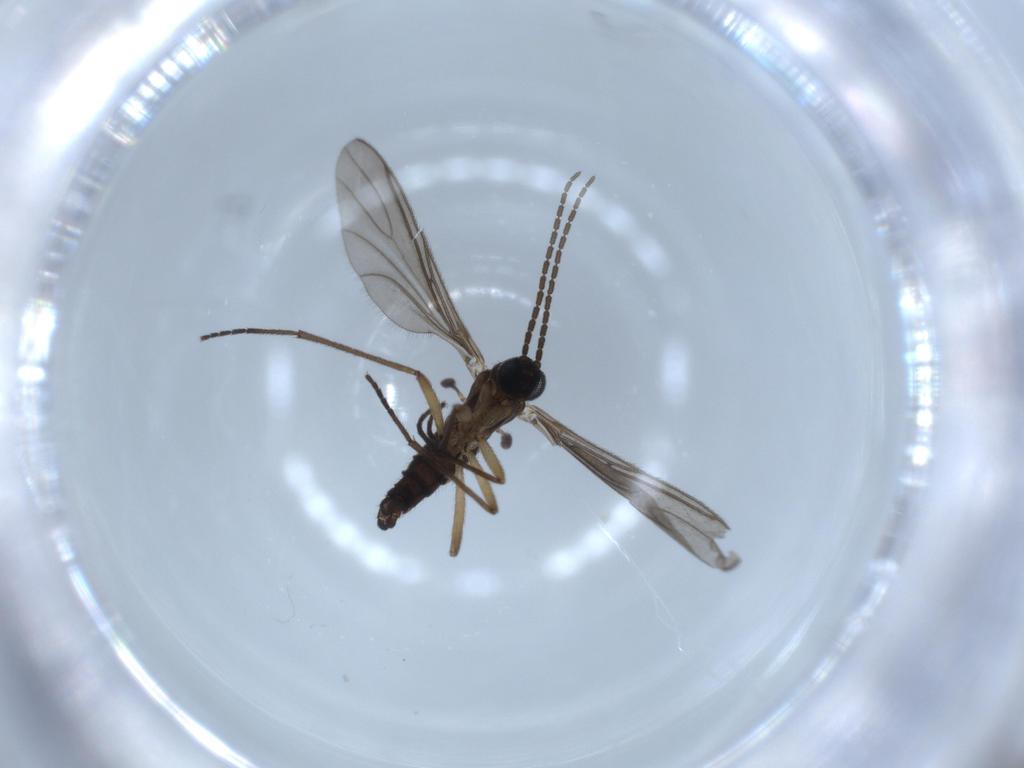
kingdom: Animalia
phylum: Arthropoda
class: Insecta
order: Diptera
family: Sciaridae
